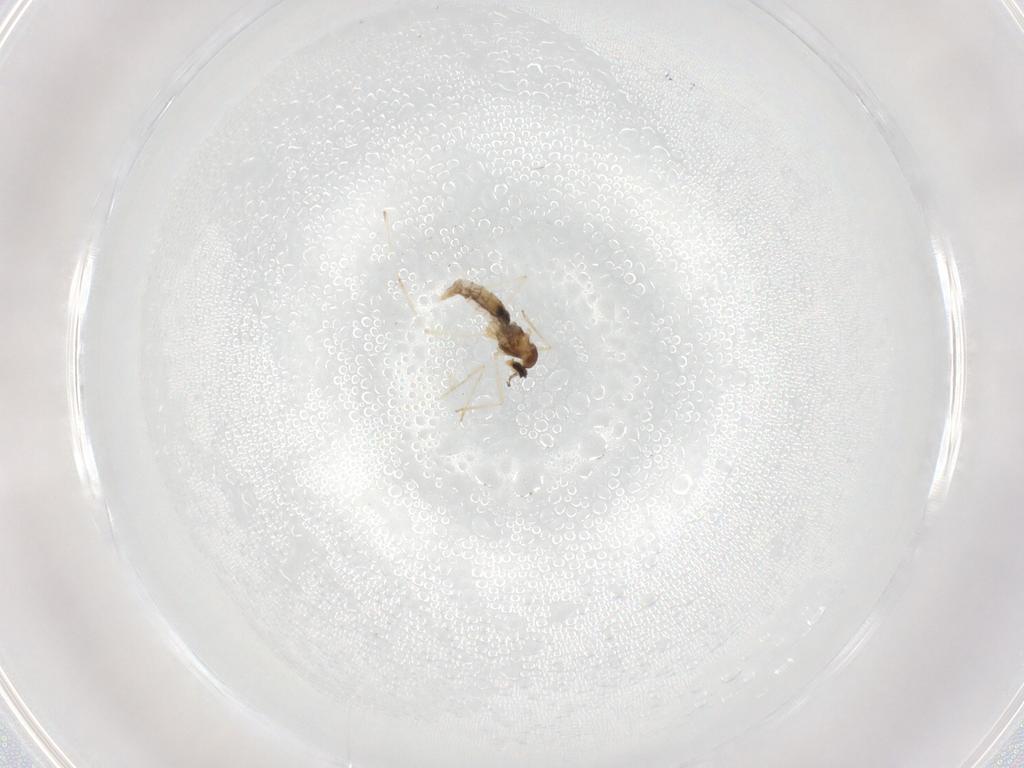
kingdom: Animalia
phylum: Arthropoda
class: Insecta
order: Diptera
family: Cecidomyiidae
